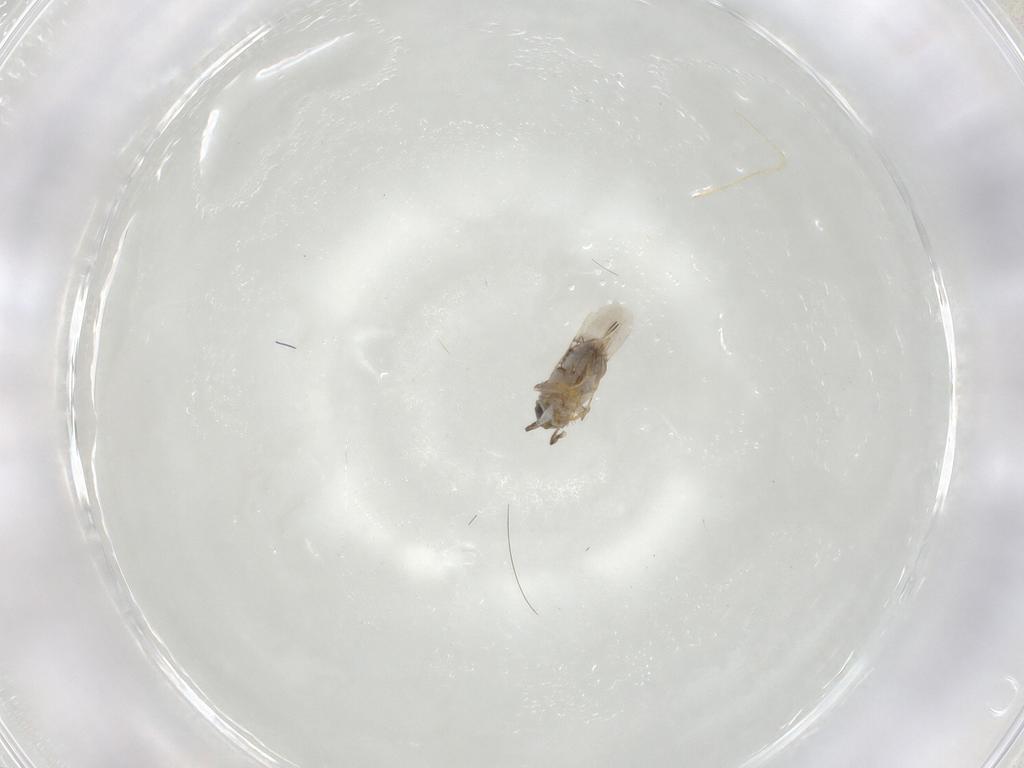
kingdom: Animalia
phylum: Arthropoda
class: Insecta
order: Hymenoptera
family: Encyrtidae
